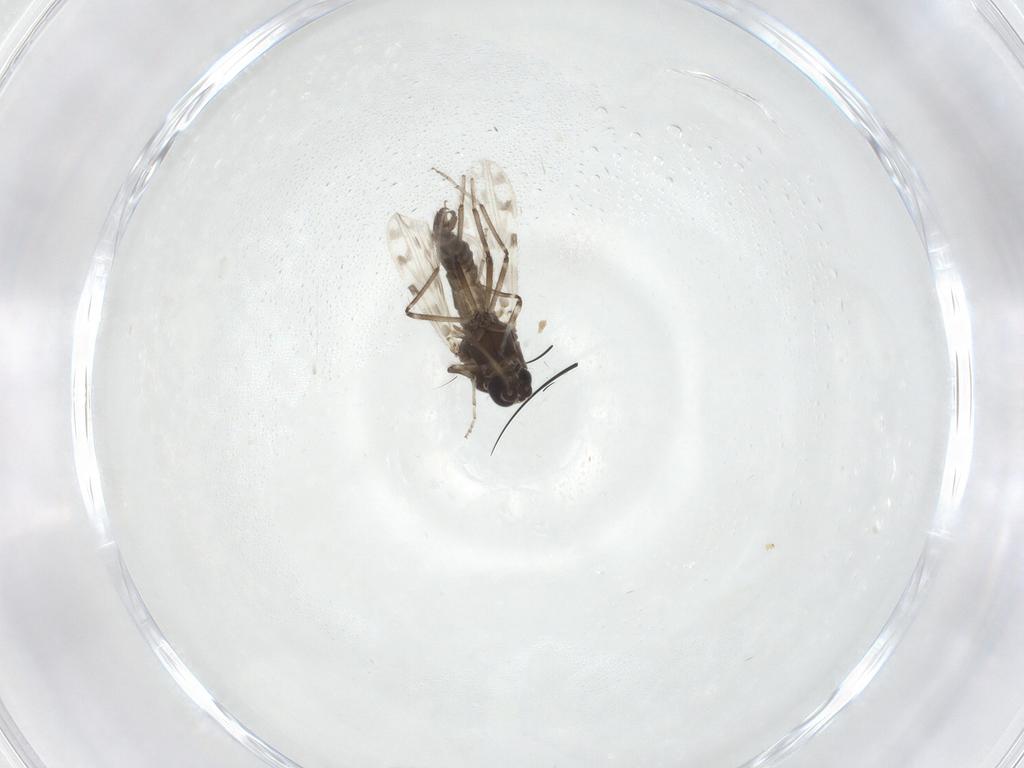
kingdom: Animalia
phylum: Arthropoda
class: Insecta
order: Diptera
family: Ceratopogonidae
